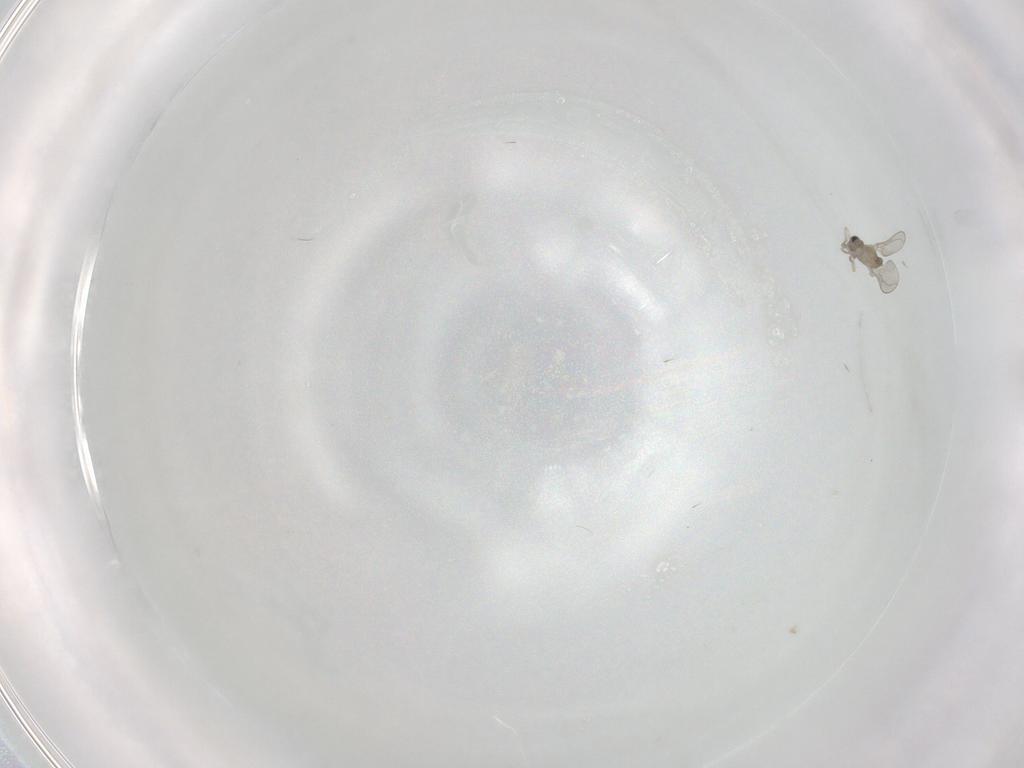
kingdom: Animalia
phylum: Arthropoda
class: Insecta
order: Diptera
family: Cecidomyiidae
